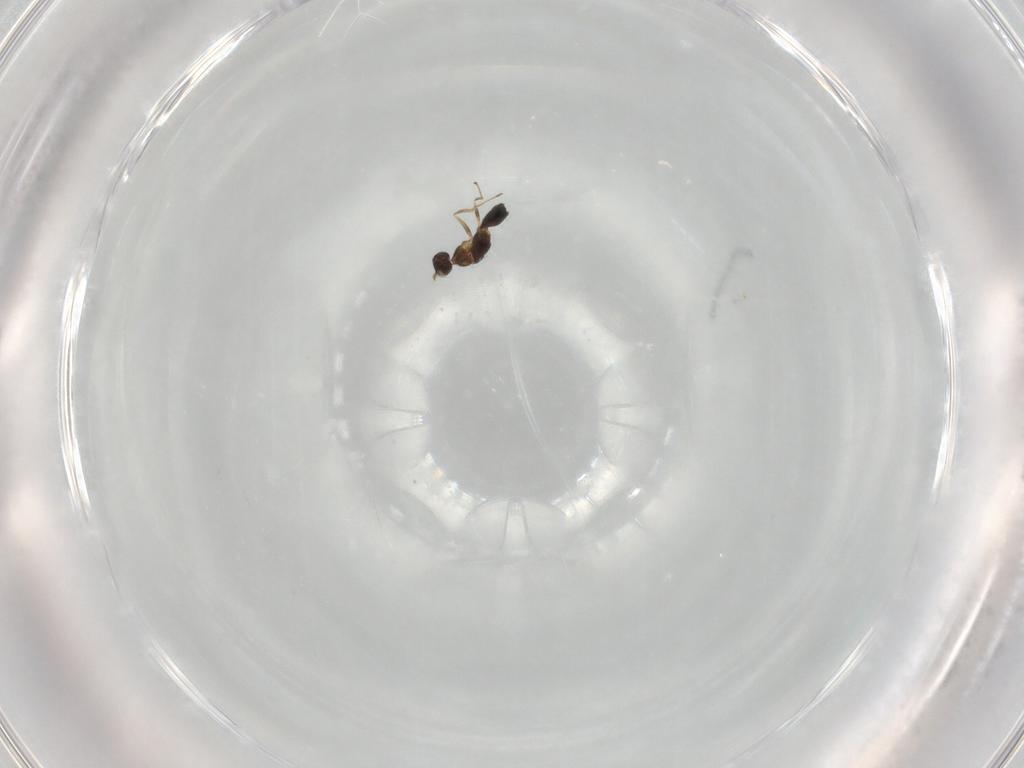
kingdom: Animalia
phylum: Arthropoda
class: Insecta
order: Hymenoptera
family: Mymaridae
